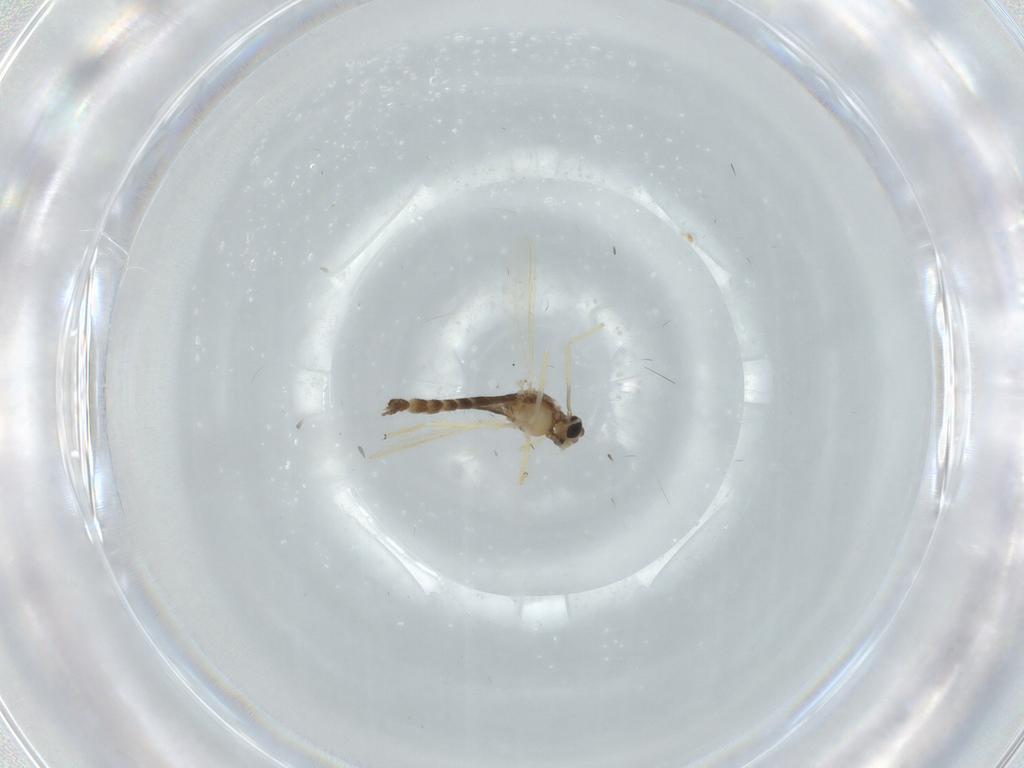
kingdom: Animalia
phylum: Arthropoda
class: Insecta
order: Diptera
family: Chironomidae
